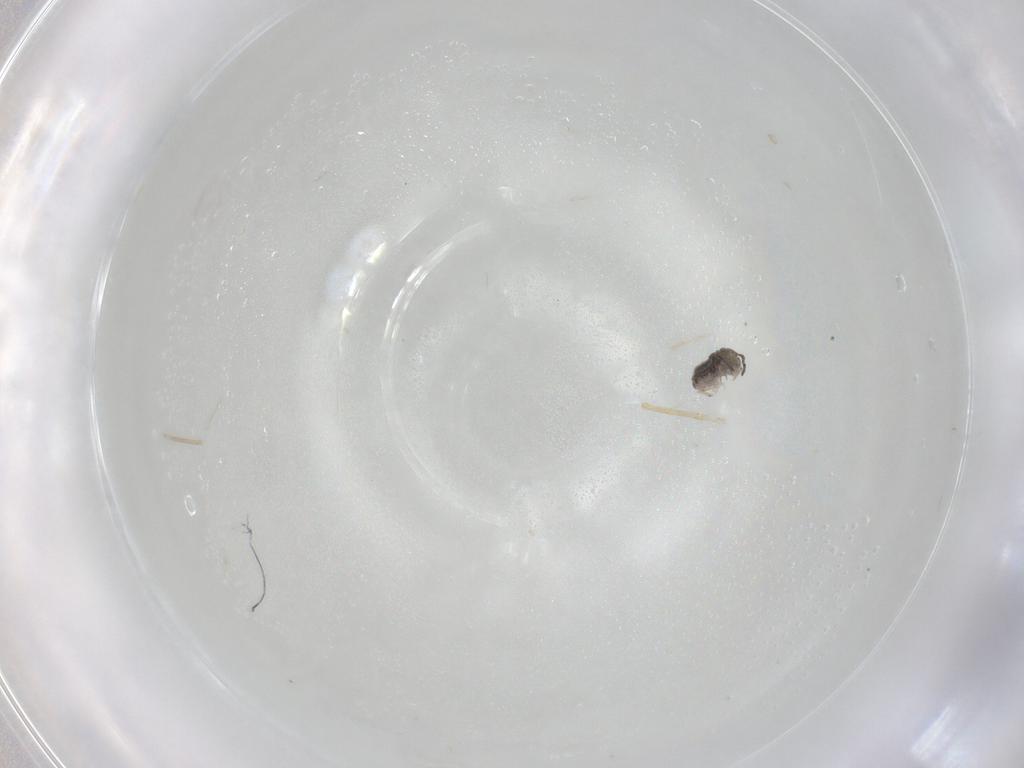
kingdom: Animalia
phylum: Arthropoda
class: Collembola
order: Symphypleona
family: Katiannidae
